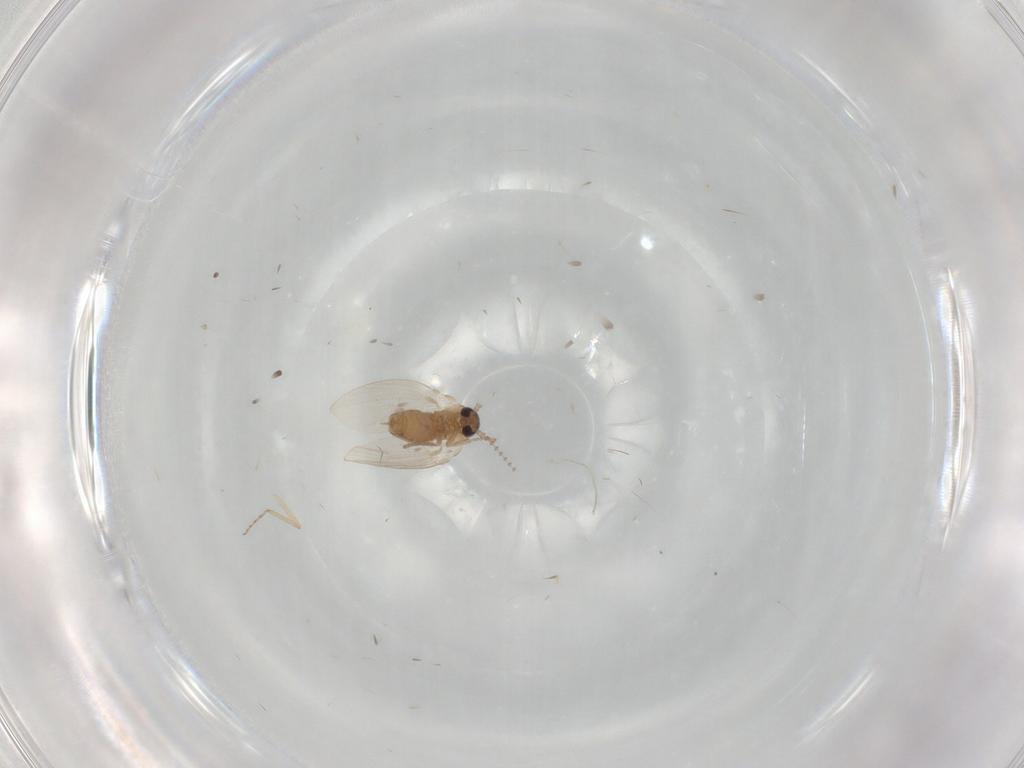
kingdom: Animalia
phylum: Arthropoda
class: Insecta
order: Diptera
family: Psychodidae
